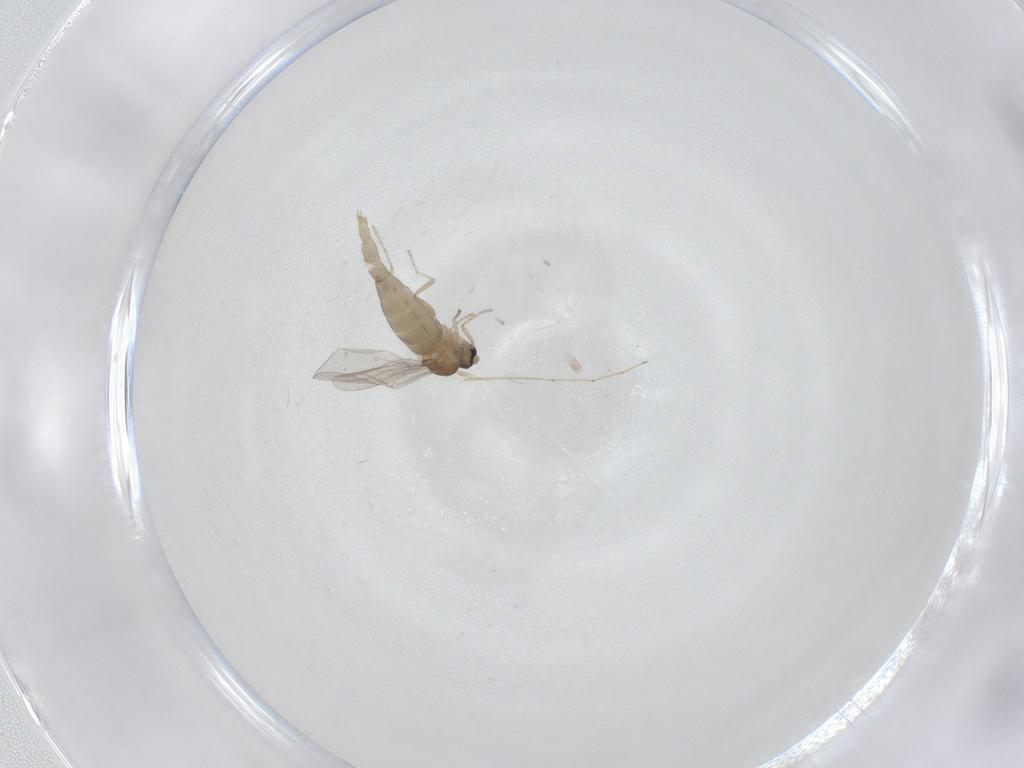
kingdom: Animalia
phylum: Arthropoda
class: Insecta
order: Diptera
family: Cecidomyiidae
